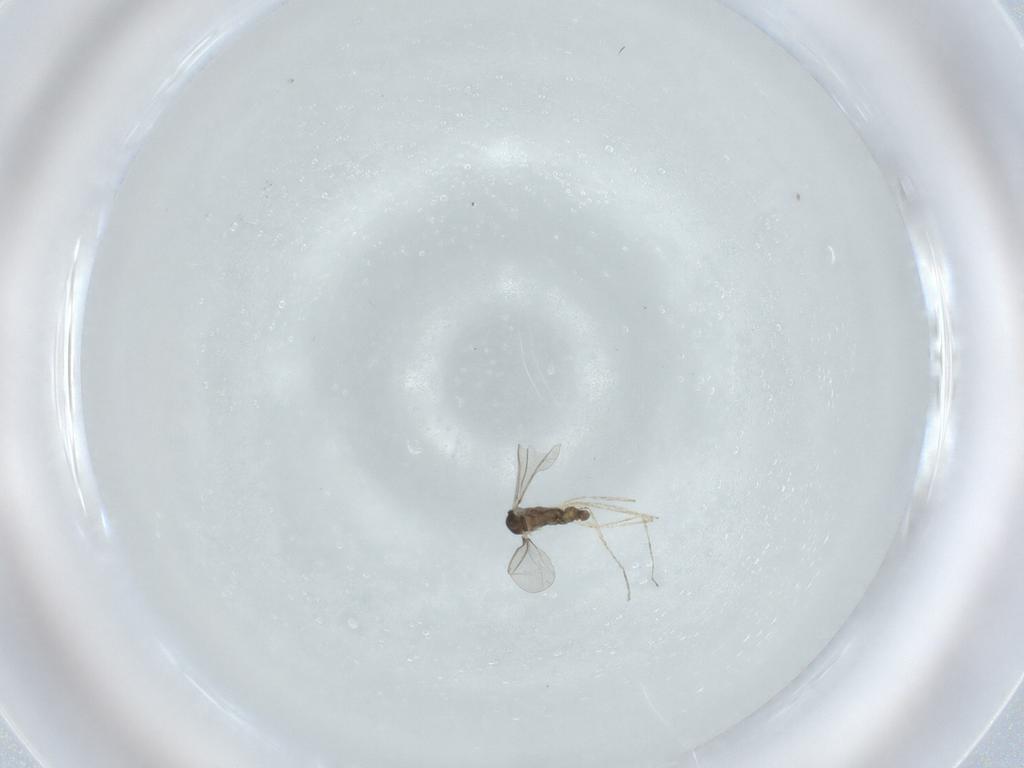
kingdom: Animalia
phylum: Arthropoda
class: Insecta
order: Diptera
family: Cecidomyiidae
